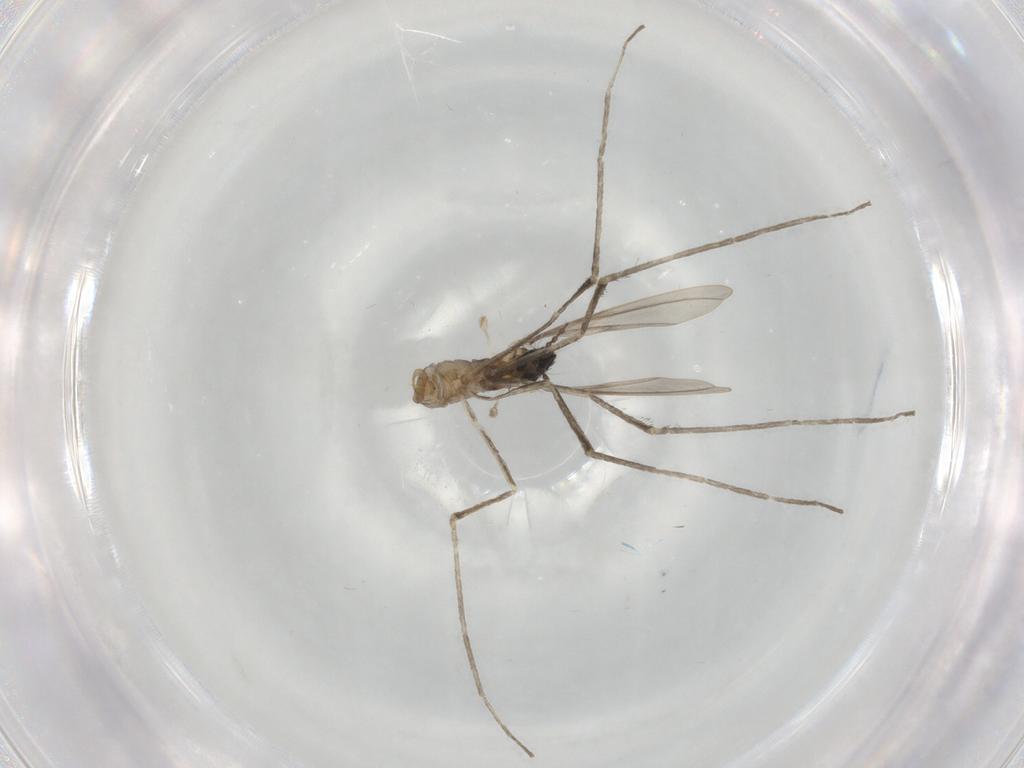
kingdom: Animalia
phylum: Arthropoda
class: Insecta
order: Diptera
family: Cecidomyiidae
